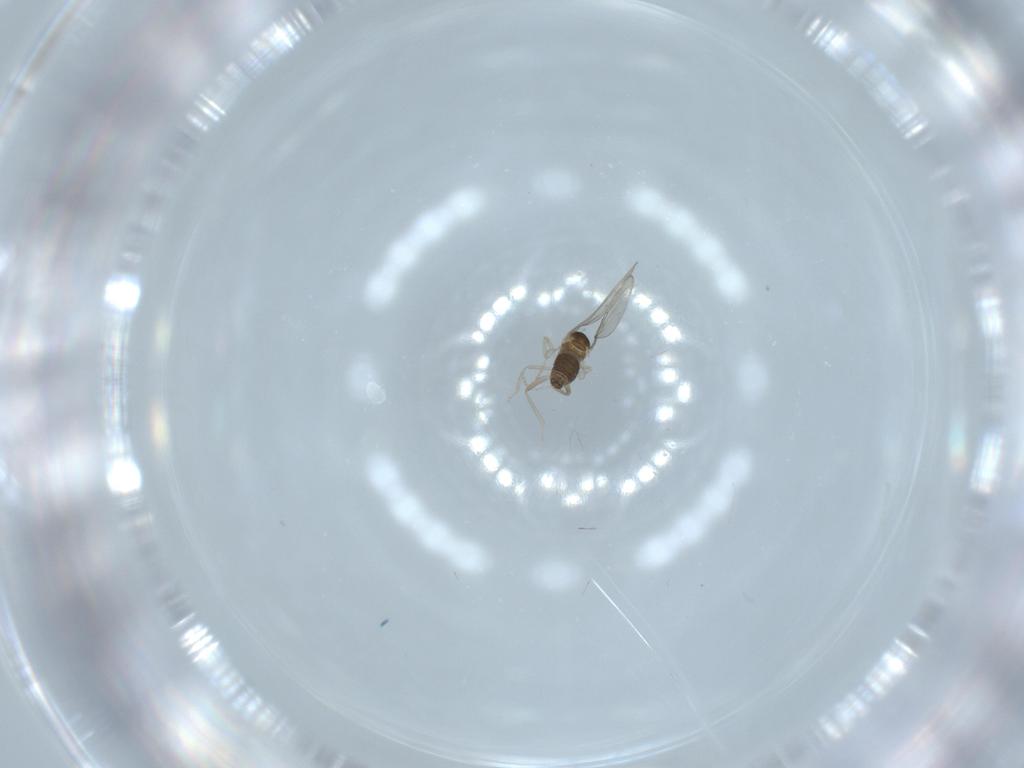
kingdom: Animalia
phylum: Arthropoda
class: Insecta
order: Diptera
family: Cecidomyiidae
